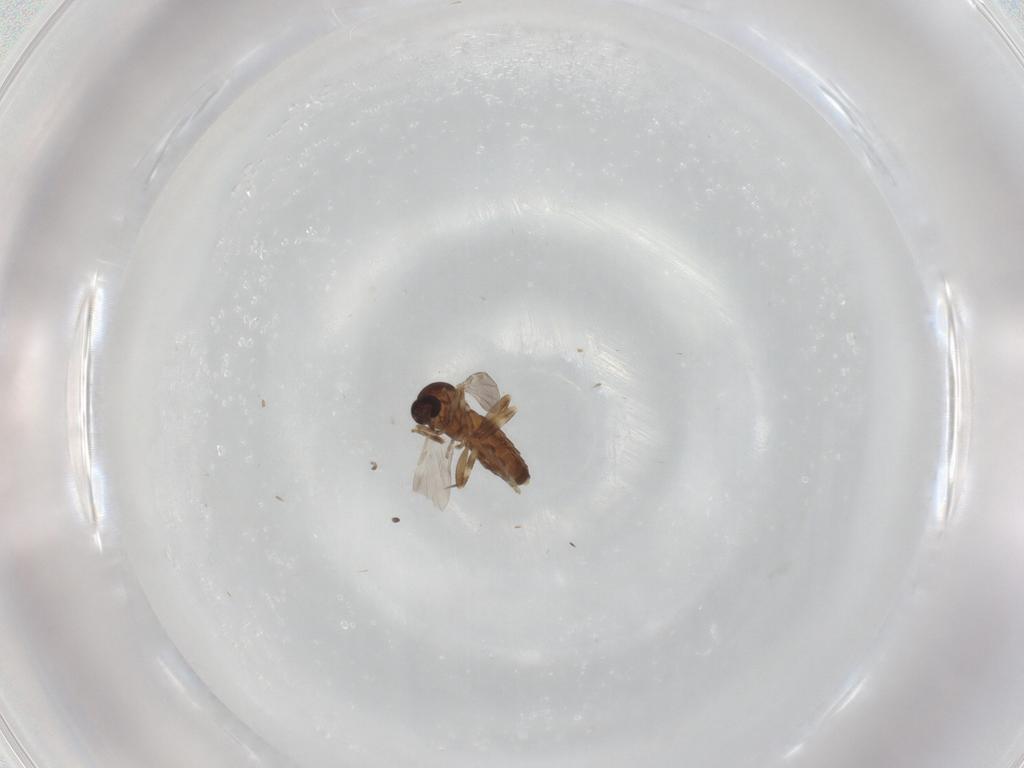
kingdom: Animalia
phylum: Arthropoda
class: Insecta
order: Diptera
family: Ceratopogonidae
